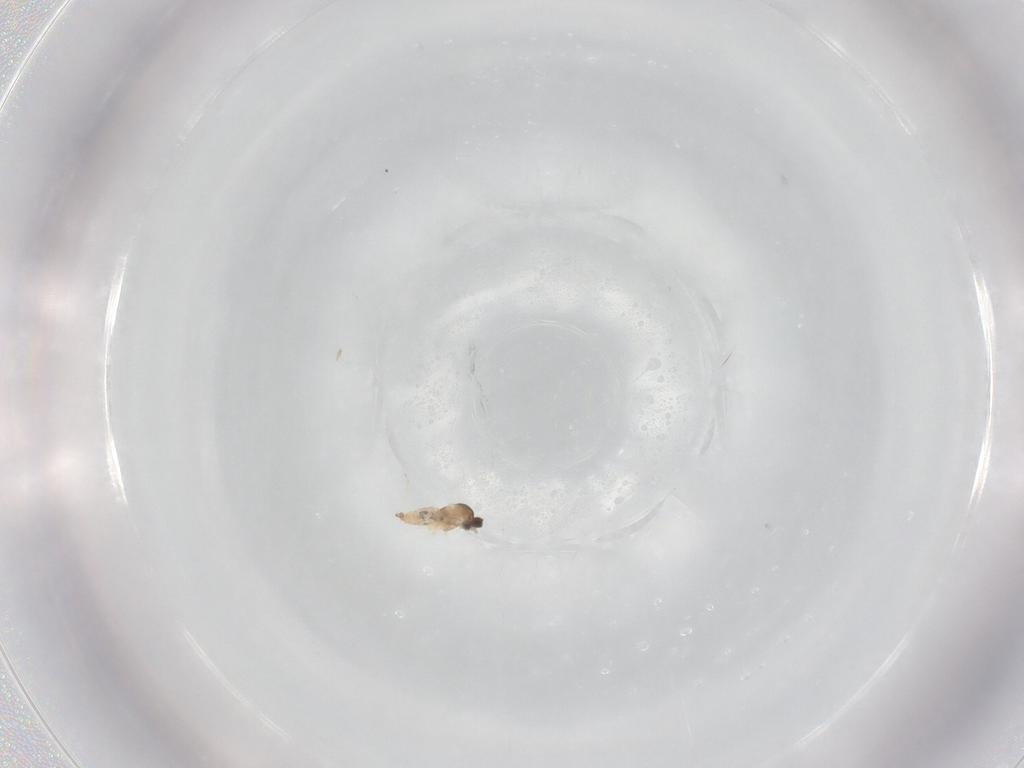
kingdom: Animalia
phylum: Arthropoda
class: Insecta
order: Diptera
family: Cecidomyiidae
